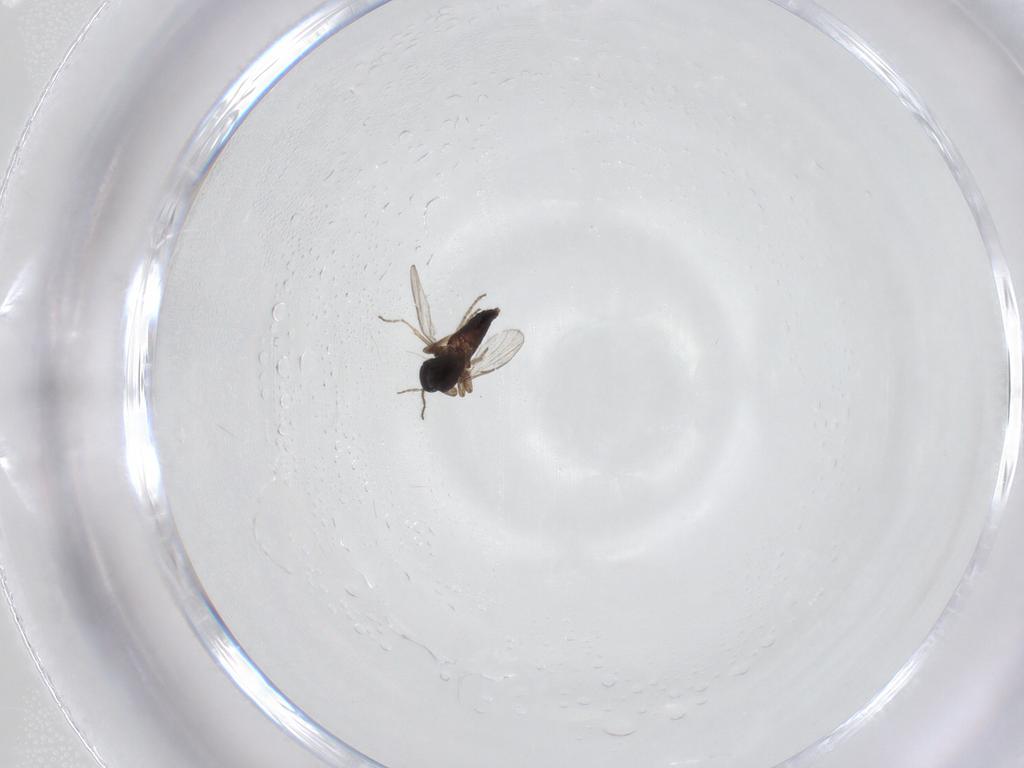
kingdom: Animalia
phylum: Arthropoda
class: Insecta
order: Diptera
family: Ceratopogonidae
